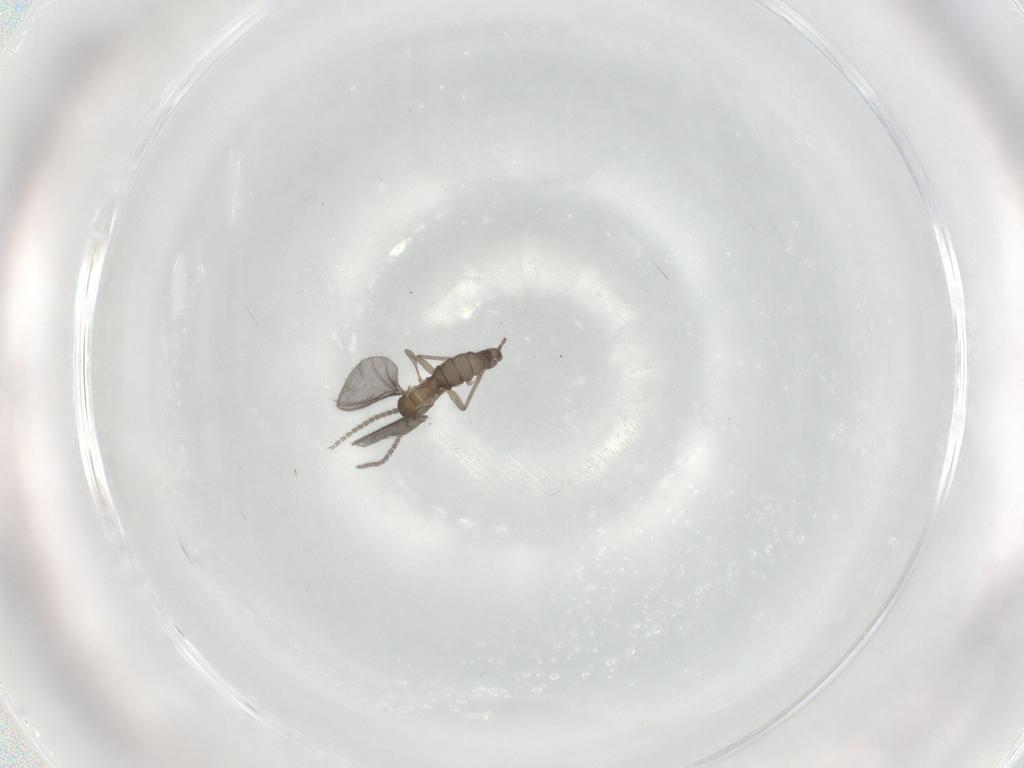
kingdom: Animalia
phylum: Arthropoda
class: Insecta
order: Diptera
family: Sciaridae
